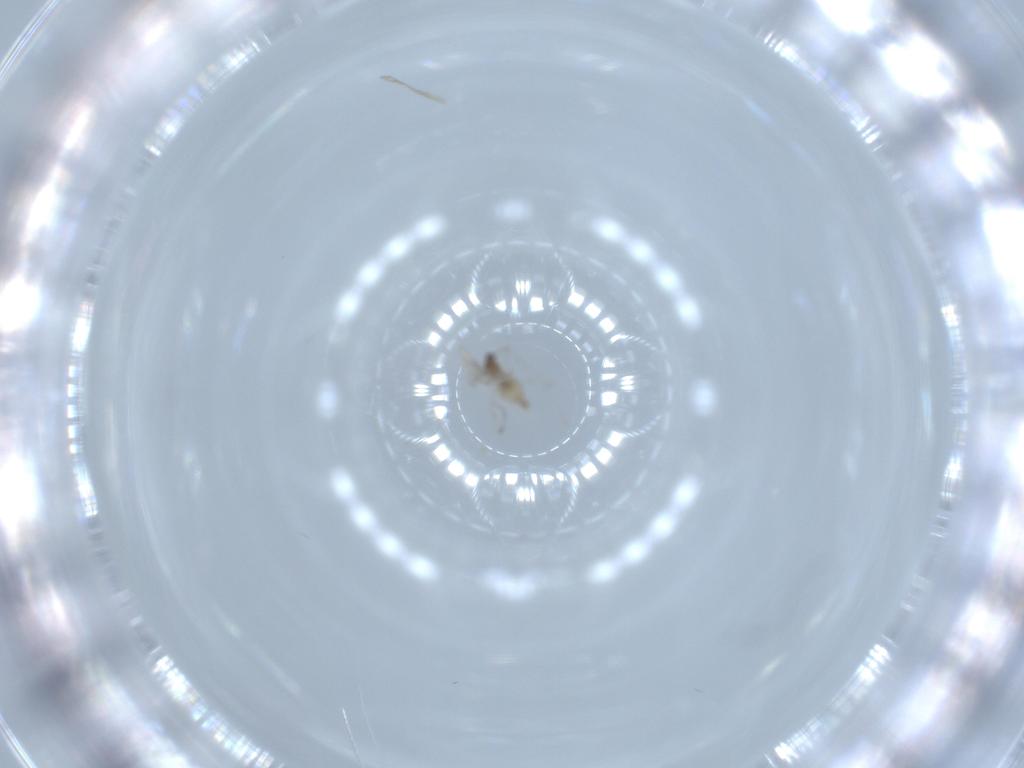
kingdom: Animalia
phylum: Arthropoda
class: Insecta
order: Diptera
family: Cecidomyiidae
